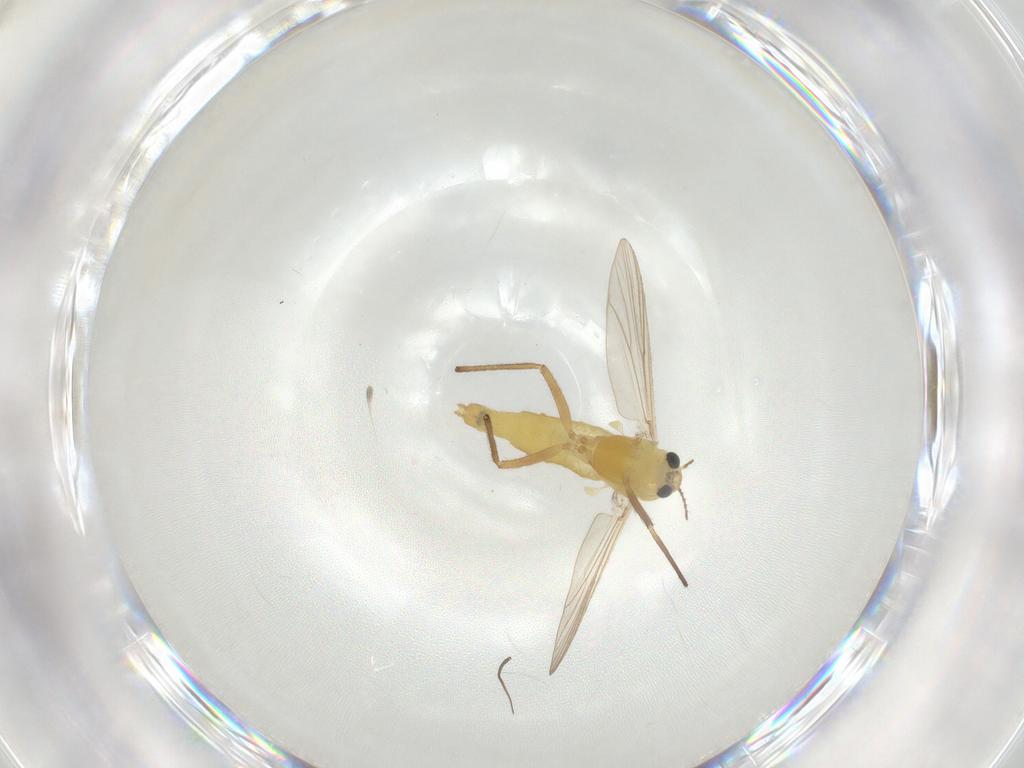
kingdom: Animalia
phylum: Arthropoda
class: Insecta
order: Diptera
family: Chironomidae
